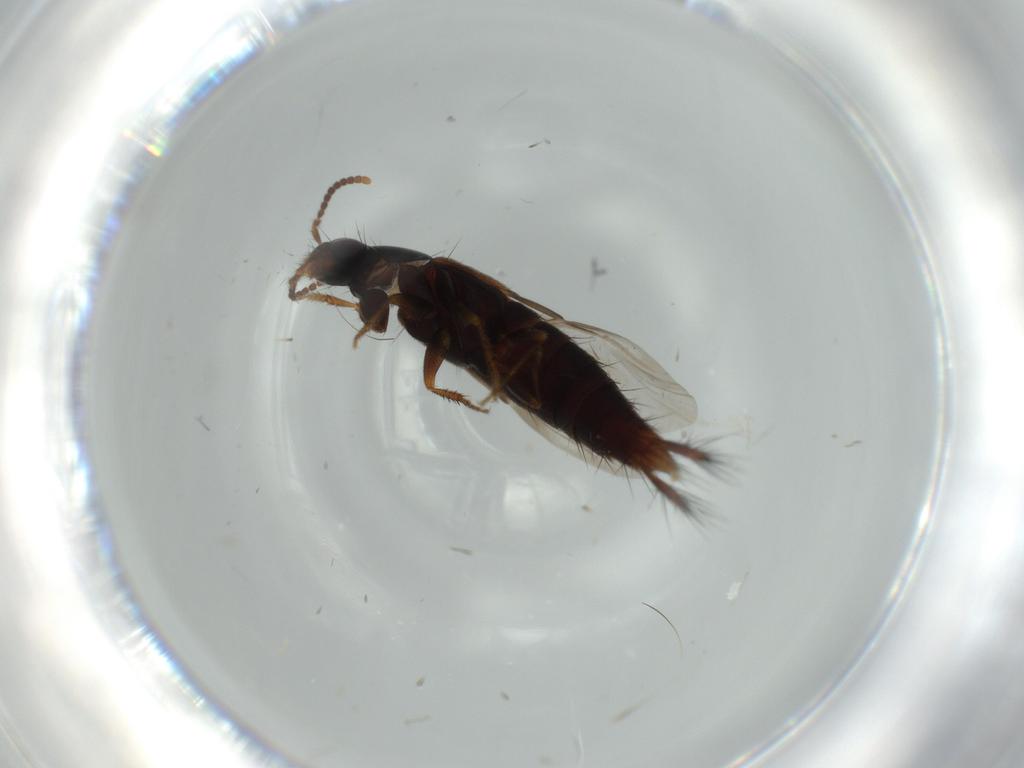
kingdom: Animalia
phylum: Arthropoda
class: Insecta
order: Coleoptera
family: Staphylinidae
